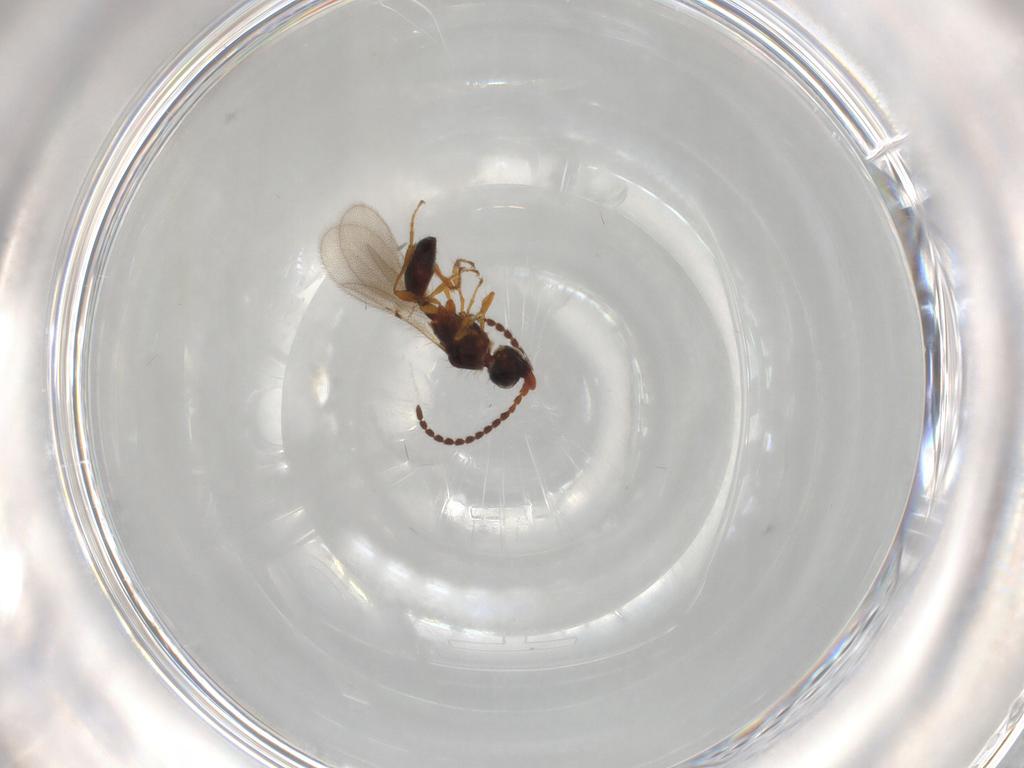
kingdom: Animalia
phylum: Arthropoda
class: Insecta
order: Hymenoptera
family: Diapriidae
